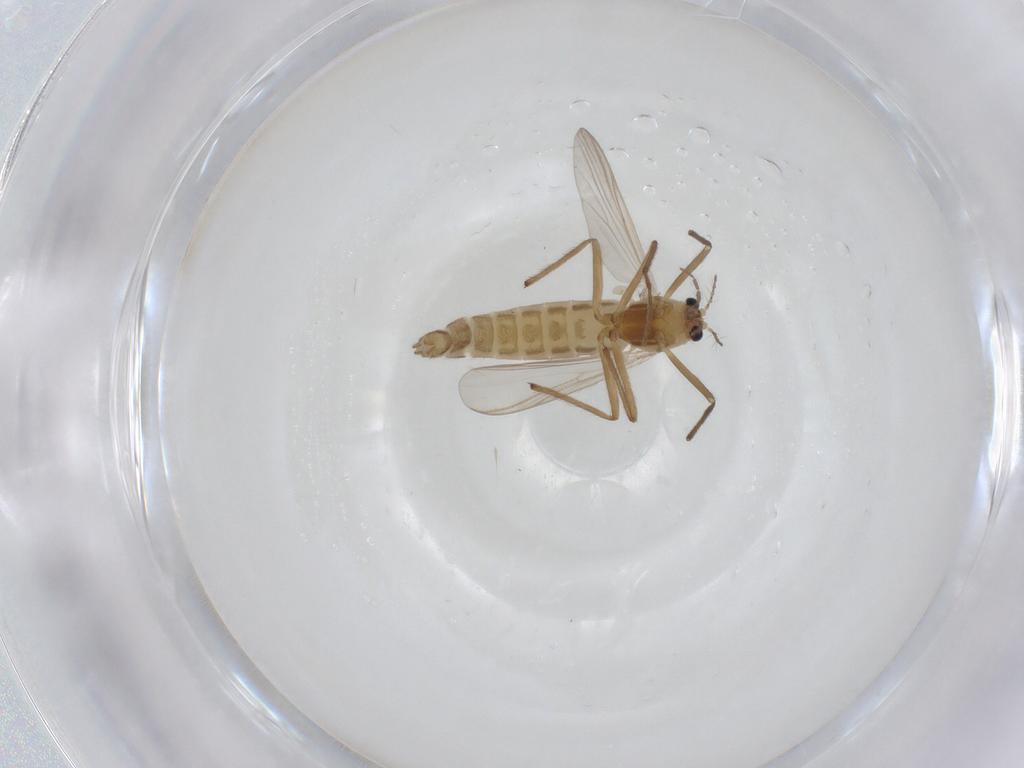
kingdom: Animalia
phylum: Arthropoda
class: Insecta
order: Diptera
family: Chironomidae
